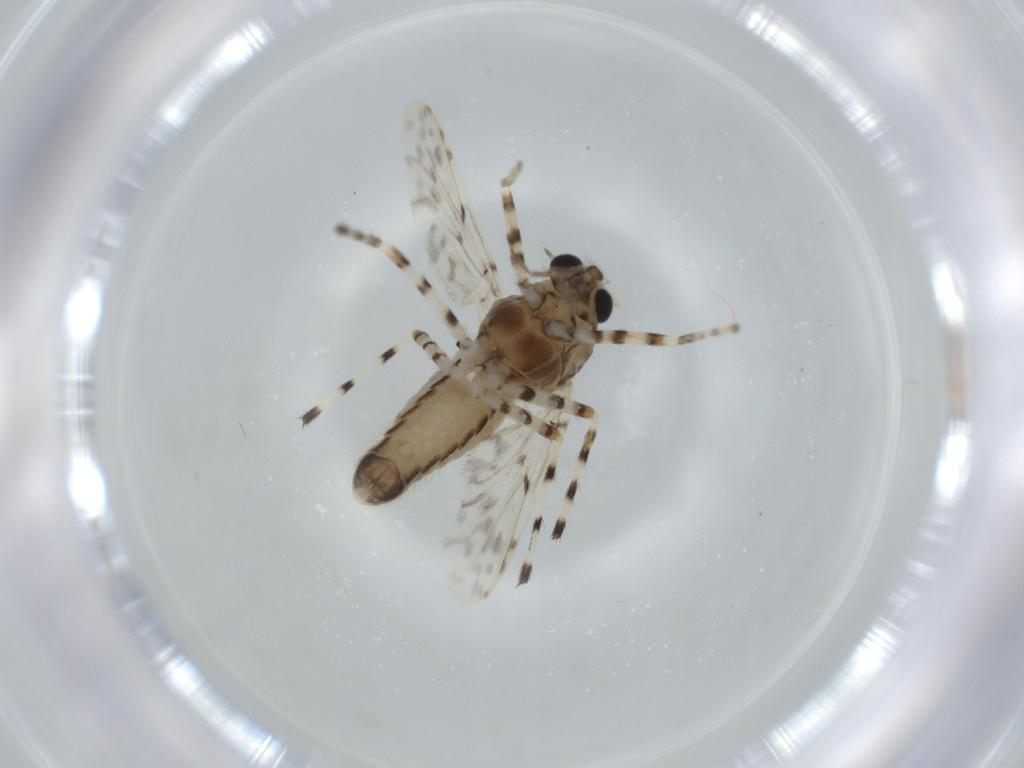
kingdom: Animalia
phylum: Arthropoda
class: Insecta
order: Diptera
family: Chironomidae
